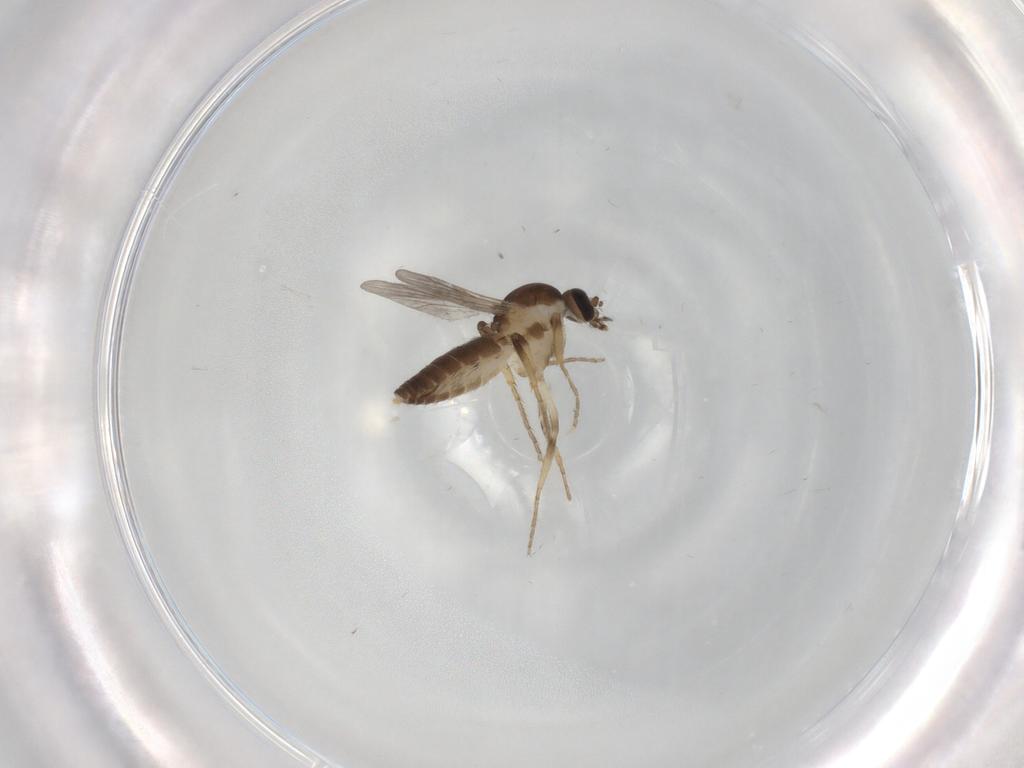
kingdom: Animalia
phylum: Arthropoda
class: Insecta
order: Diptera
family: Ceratopogonidae
